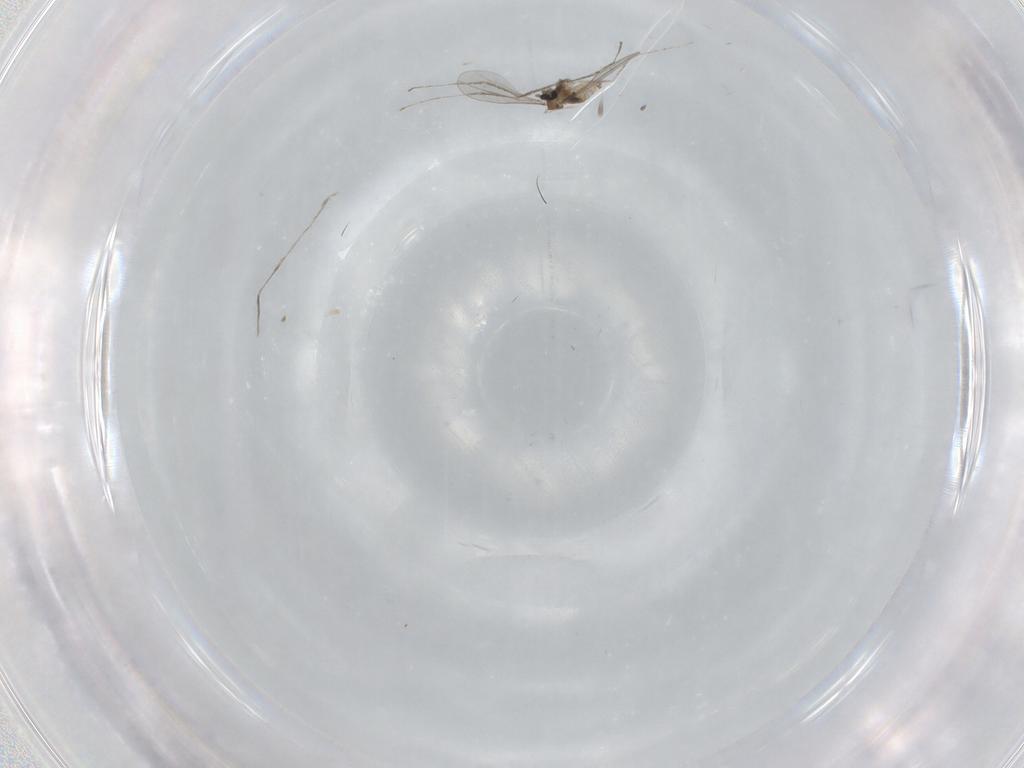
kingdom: Animalia
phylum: Arthropoda
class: Insecta
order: Diptera
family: Cecidomyiidae
